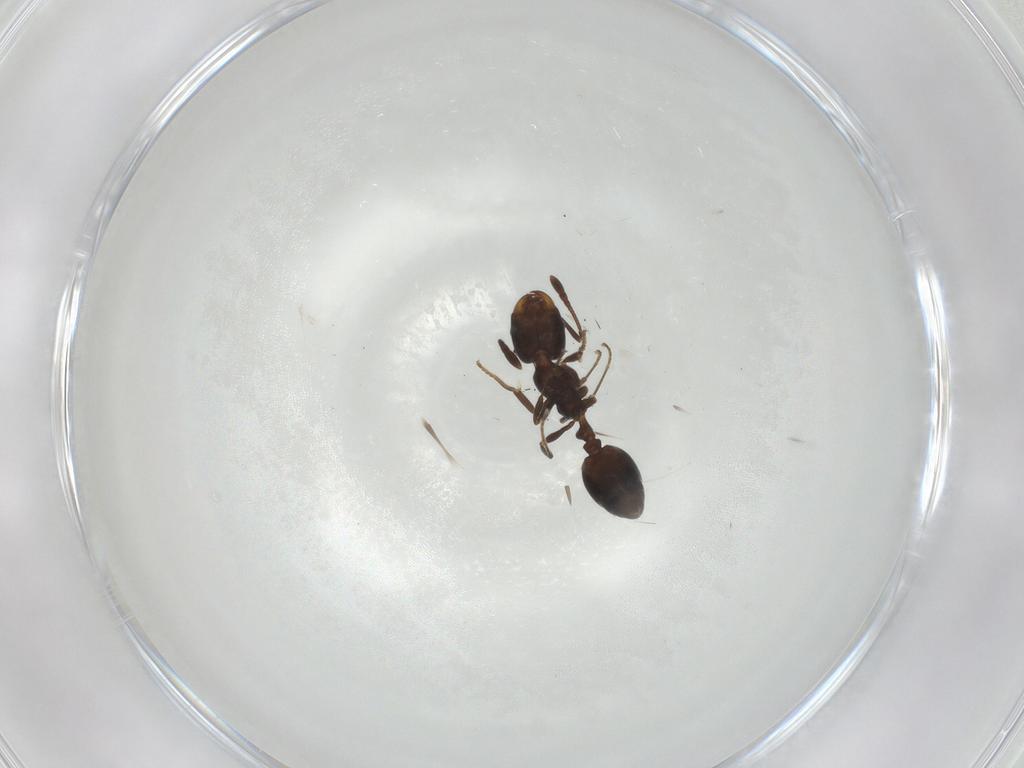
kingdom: Animalia
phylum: Arthropoda
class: Insecta
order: Hymenoptera
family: Formicidae
